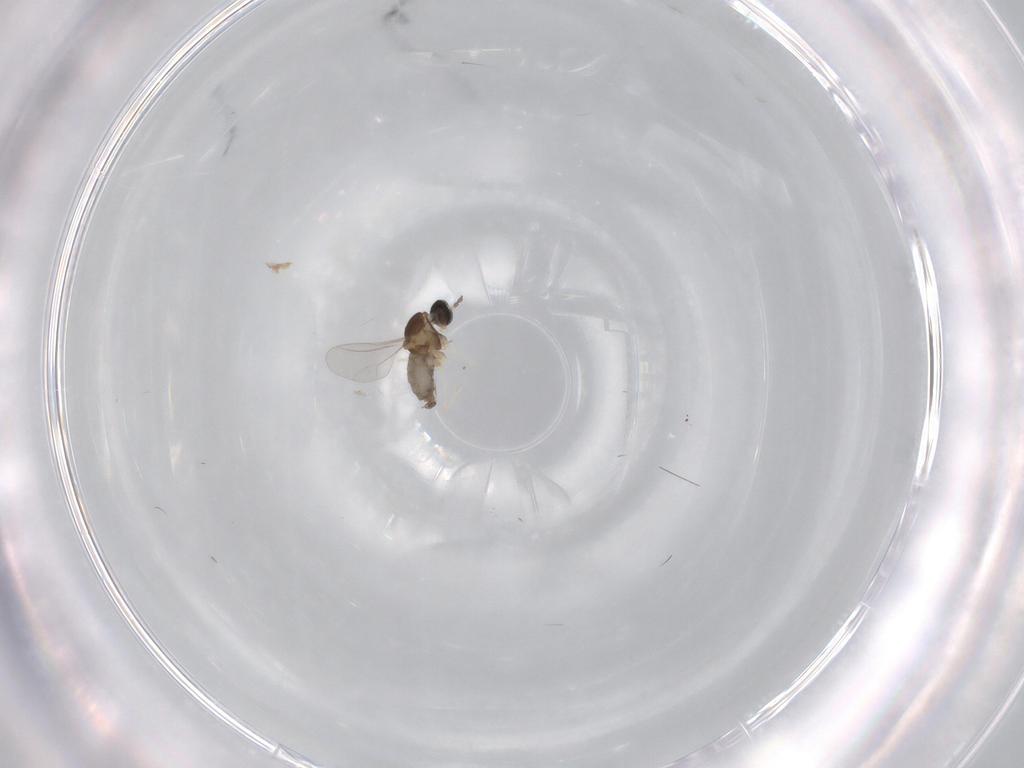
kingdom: Animalia
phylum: Arthropoda
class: Insecta
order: Diptera
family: Cecidomyiidae
